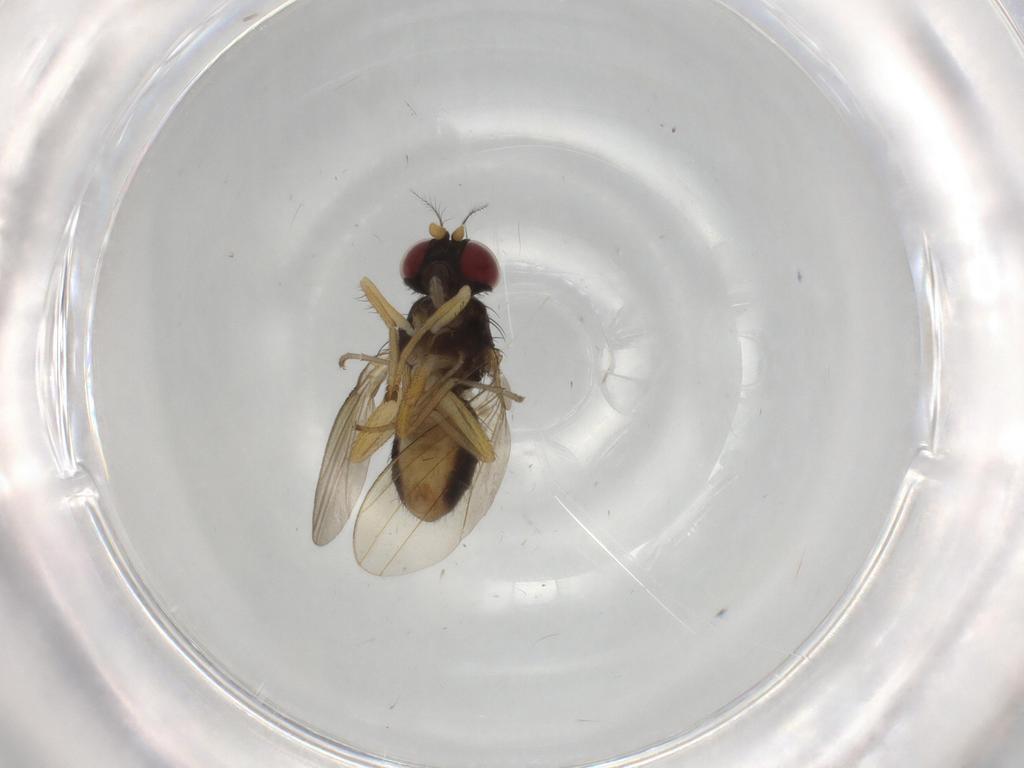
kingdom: Animalia
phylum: Arthropoda
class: Insecta
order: Diptera
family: Lauxaniidae
